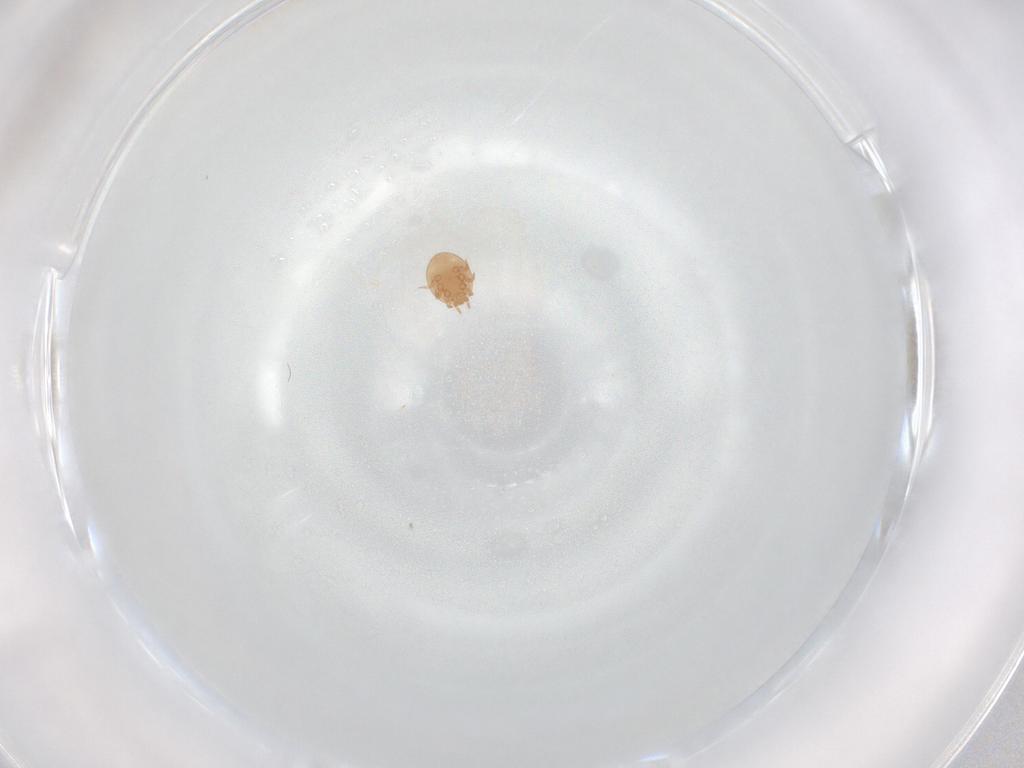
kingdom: Animalia
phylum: Arthropoda
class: Arachnida
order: Mesostigmata
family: Trematuridae
